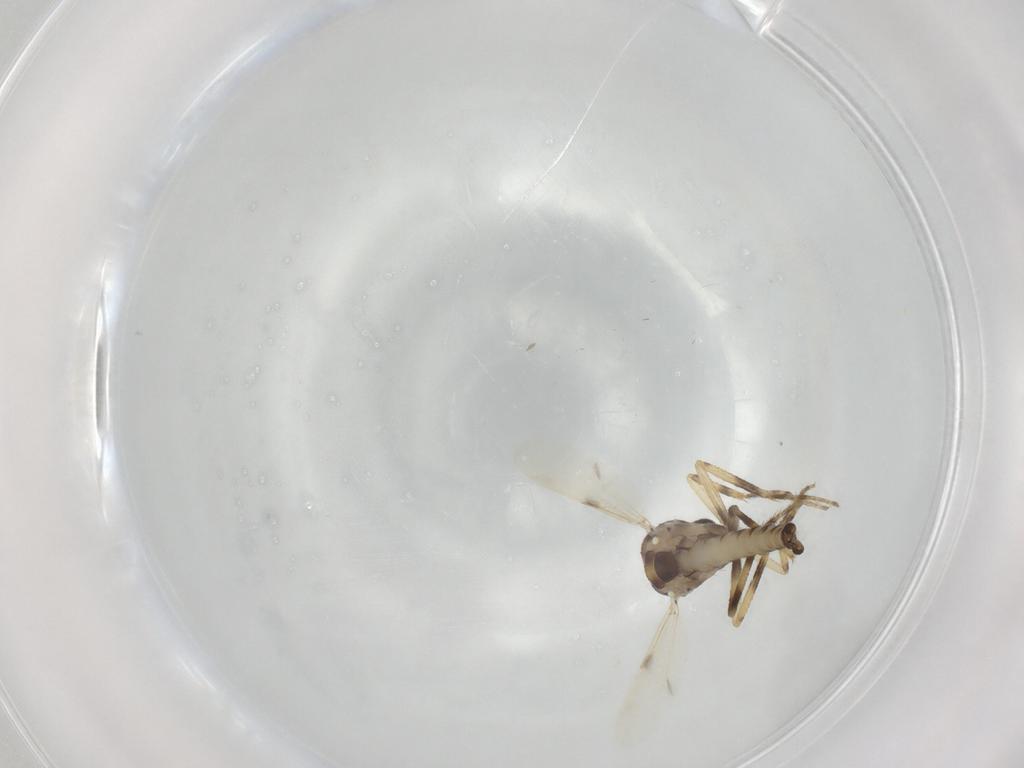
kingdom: Animalia
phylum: Arthropoda
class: Insecta
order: Diptera
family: Ceratopogonidae
